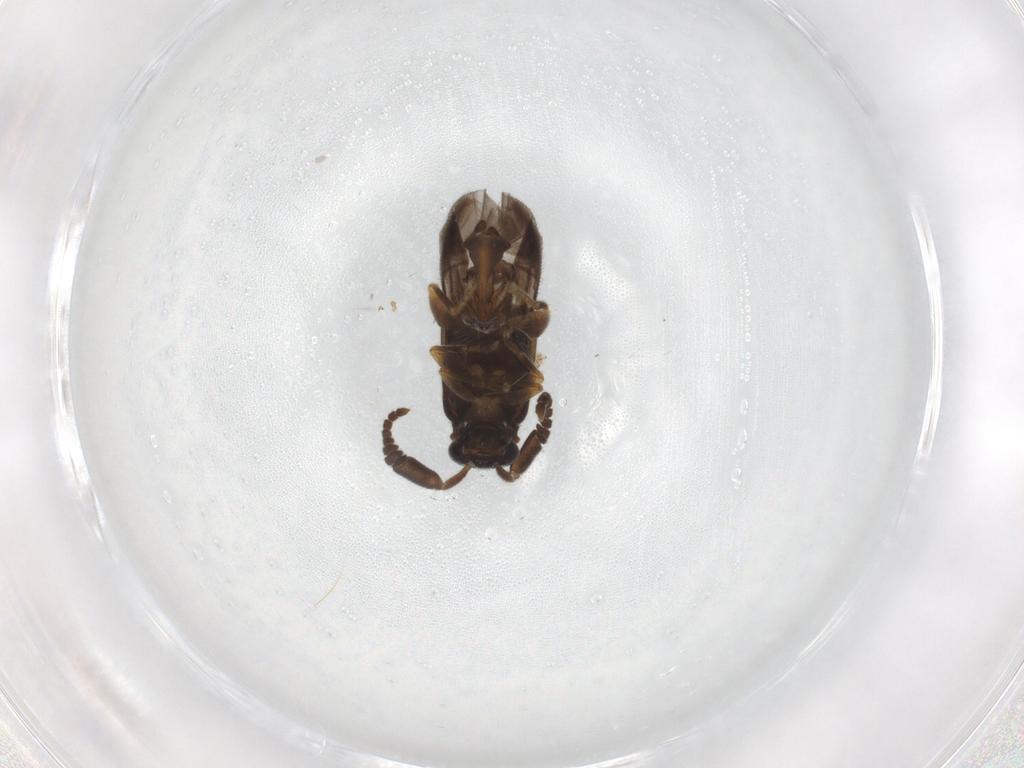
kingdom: Animalia
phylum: Arthropoda
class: Insecta
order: Coleoptera
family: Cantharidae
